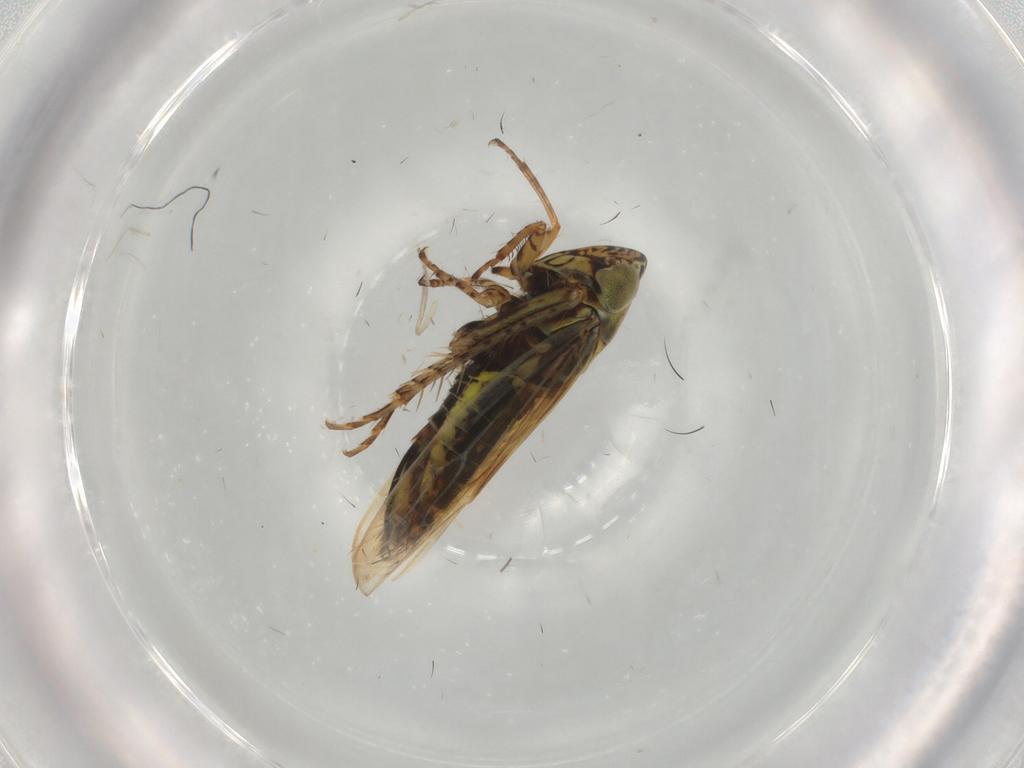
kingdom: Animalia
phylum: Arthropoda
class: Insecta
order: Hemiptera
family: Cicadellidae
